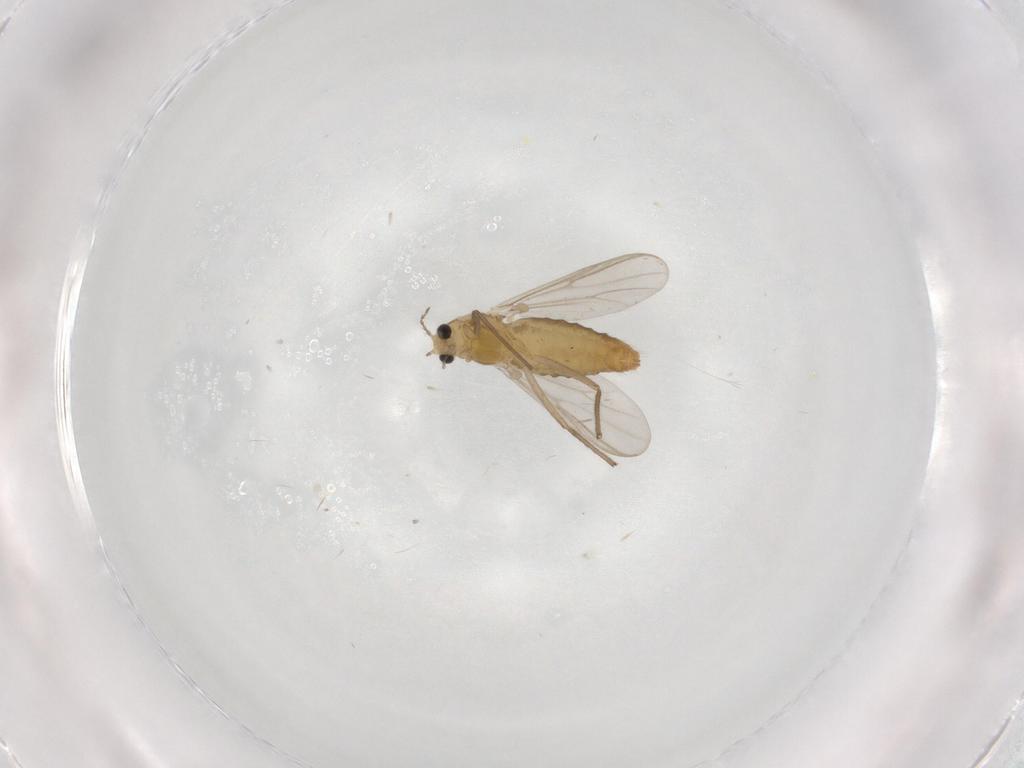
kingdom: Animalia
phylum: Arthropoda
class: Insecta
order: Diptera
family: Chironomidae
